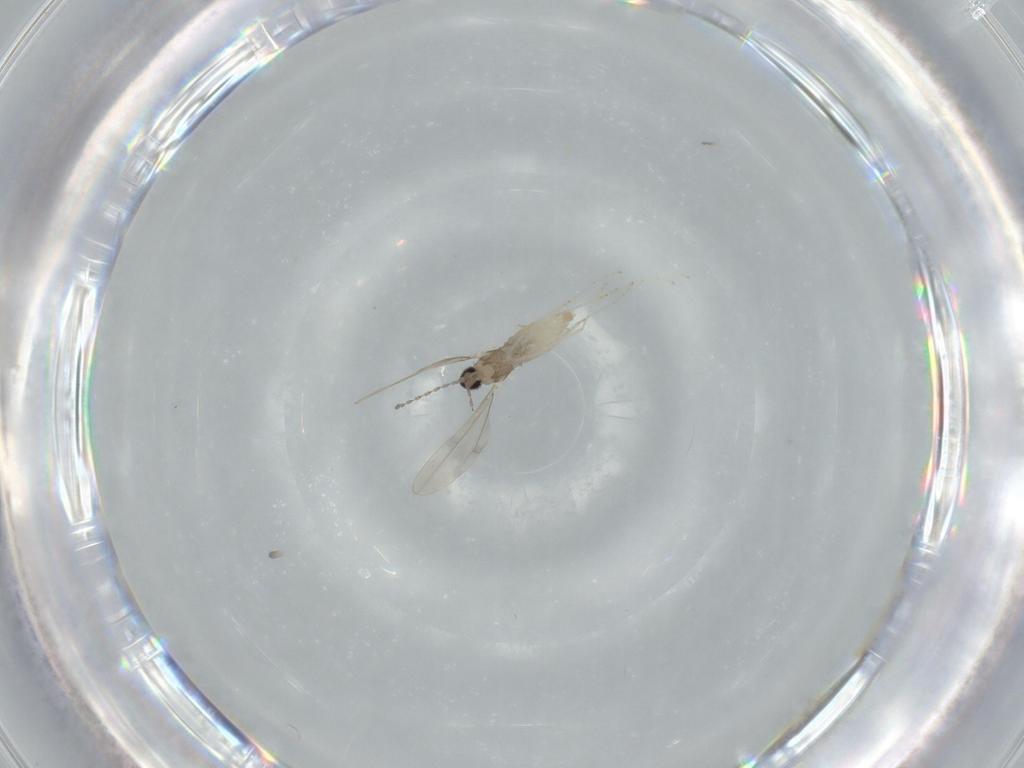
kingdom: Animalia
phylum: Arthropoda
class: Insecta
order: Diptera
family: Cecidomyiidae
